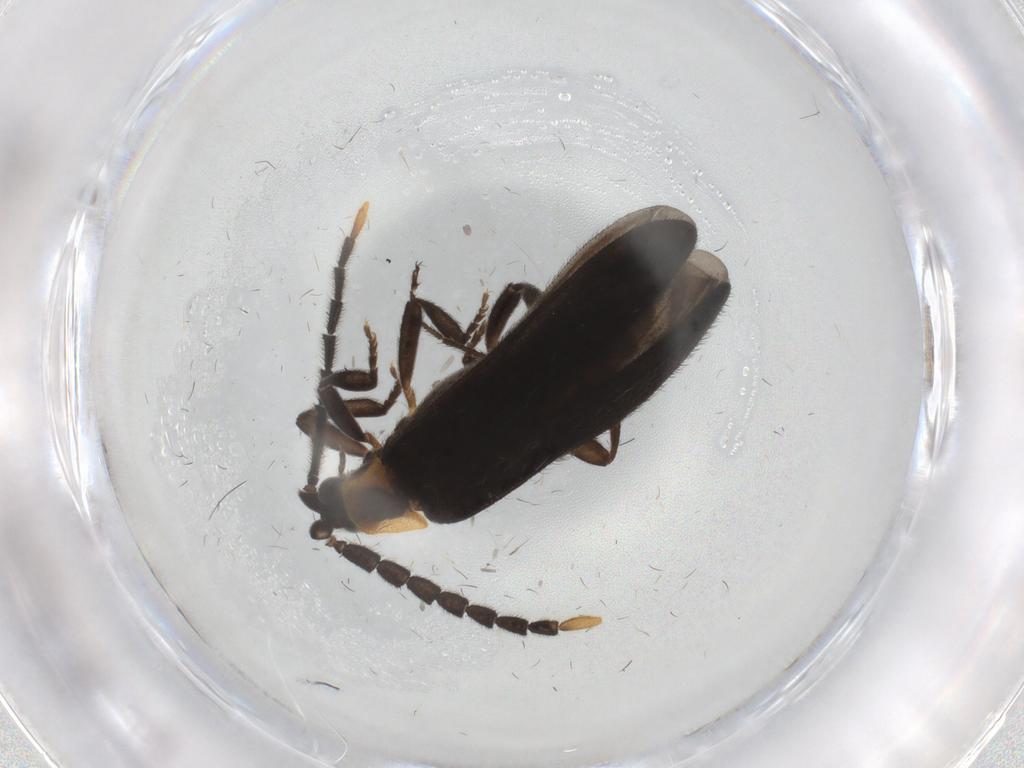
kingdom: Animalia
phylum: Arthropoda
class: Insecta
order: Coleoptera
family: Lycidae
